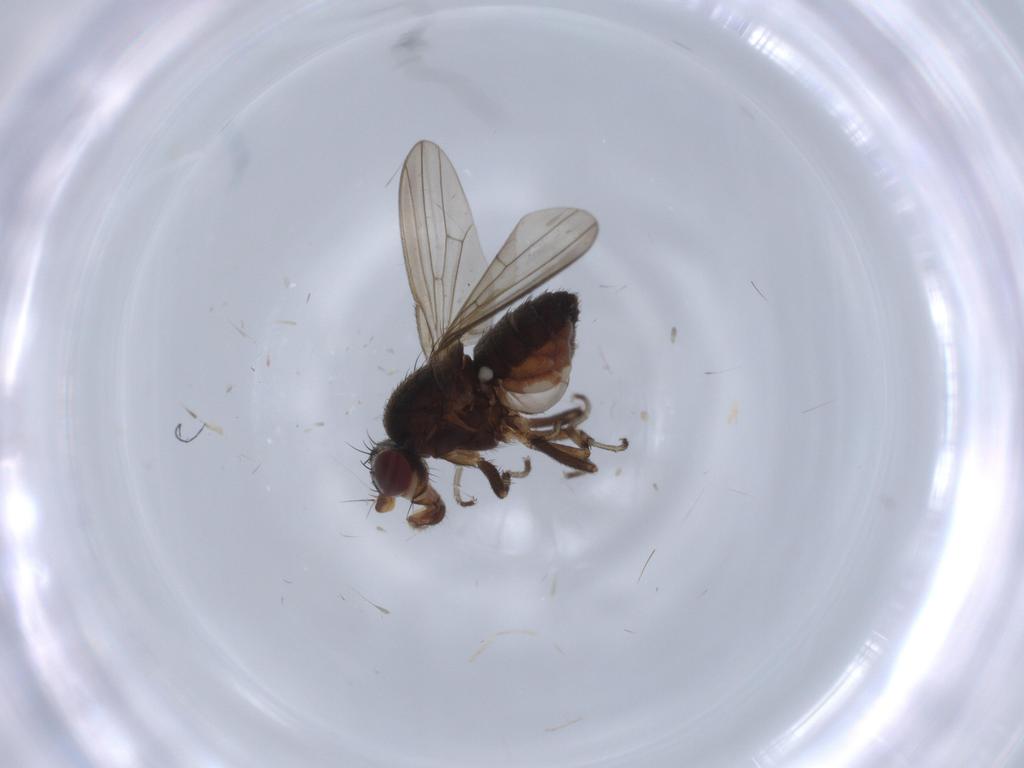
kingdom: Animalia
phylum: Arthropoda
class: Insecta
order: Diptera
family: Heleomyzidae
